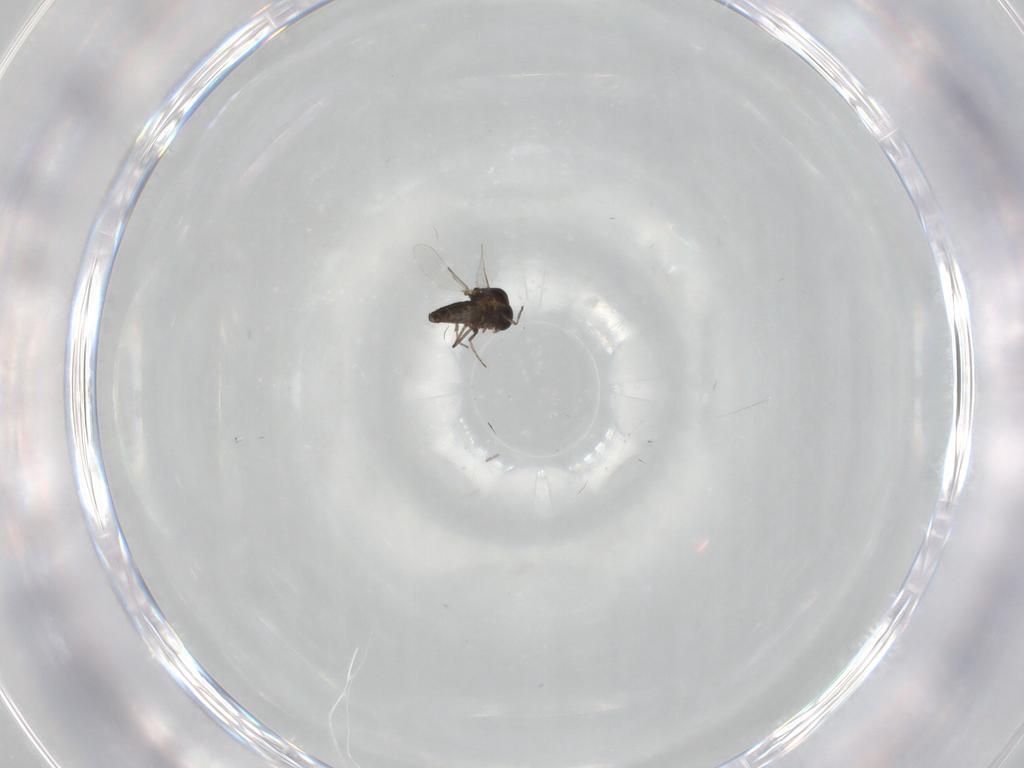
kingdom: Animalia
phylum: Arthropoda
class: Insecta
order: Diptera
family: Ceratopogonidae
